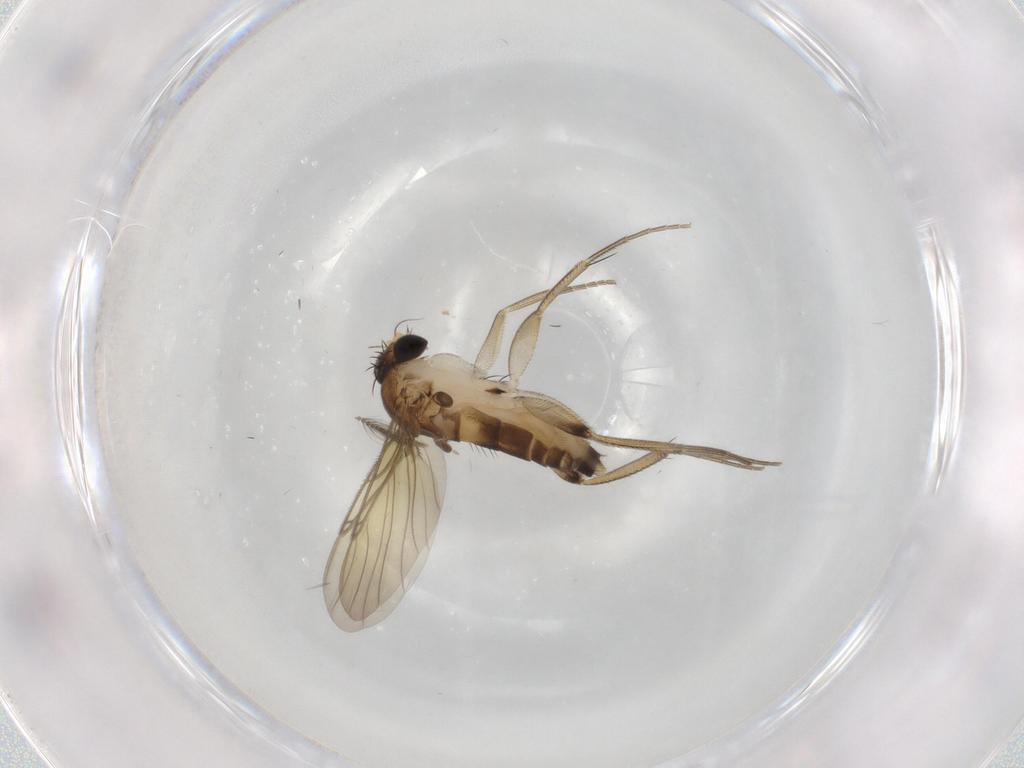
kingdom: Animalia
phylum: Arthropoda
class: Insecta
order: Diptera
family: Phoridae
